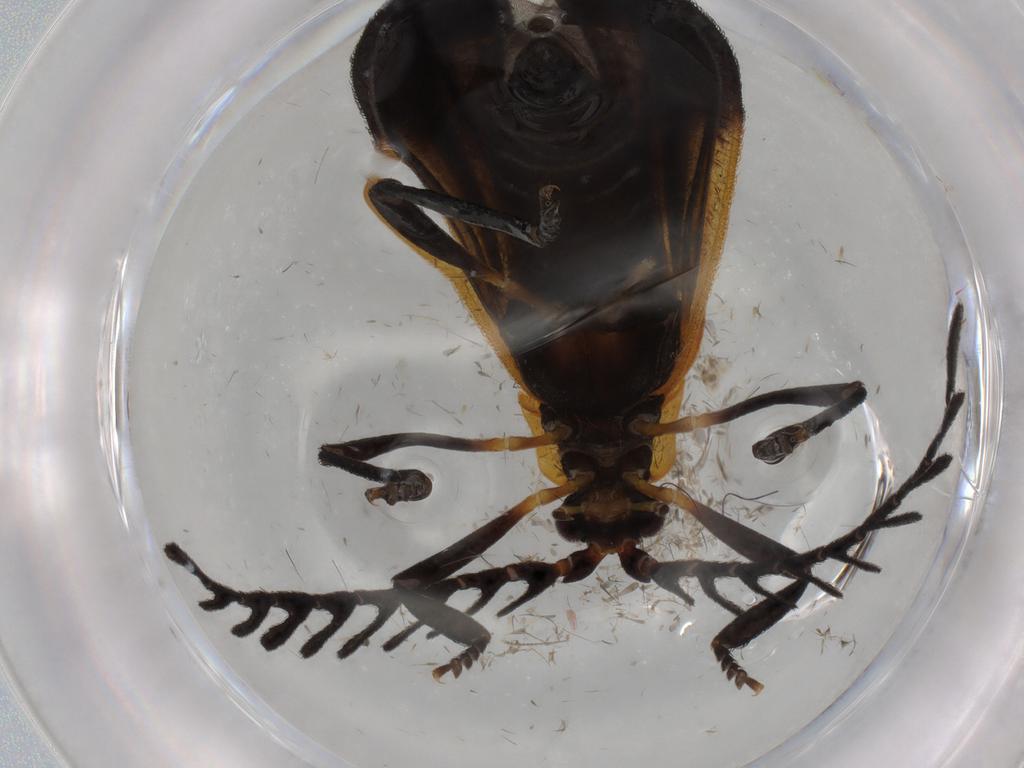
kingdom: Animalia
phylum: Arthropoda
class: Insecta
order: Coleoptera
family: Lycidae
